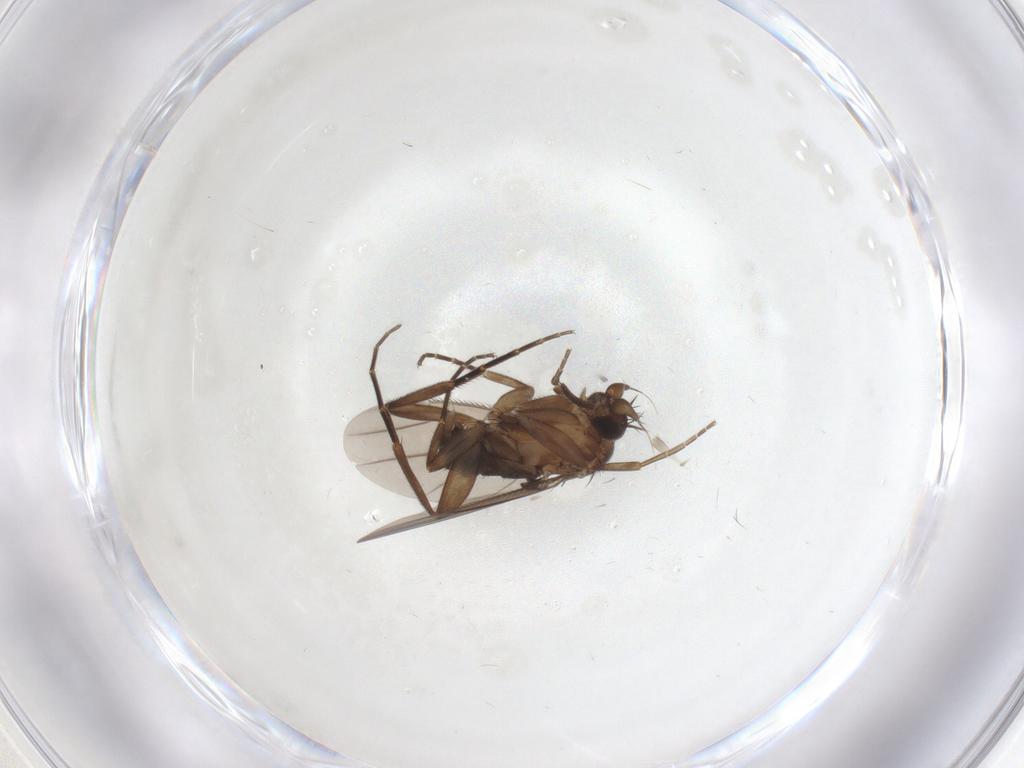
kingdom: Animalia
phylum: Arthropoda
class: Insecta
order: Diptera
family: Phoridae
